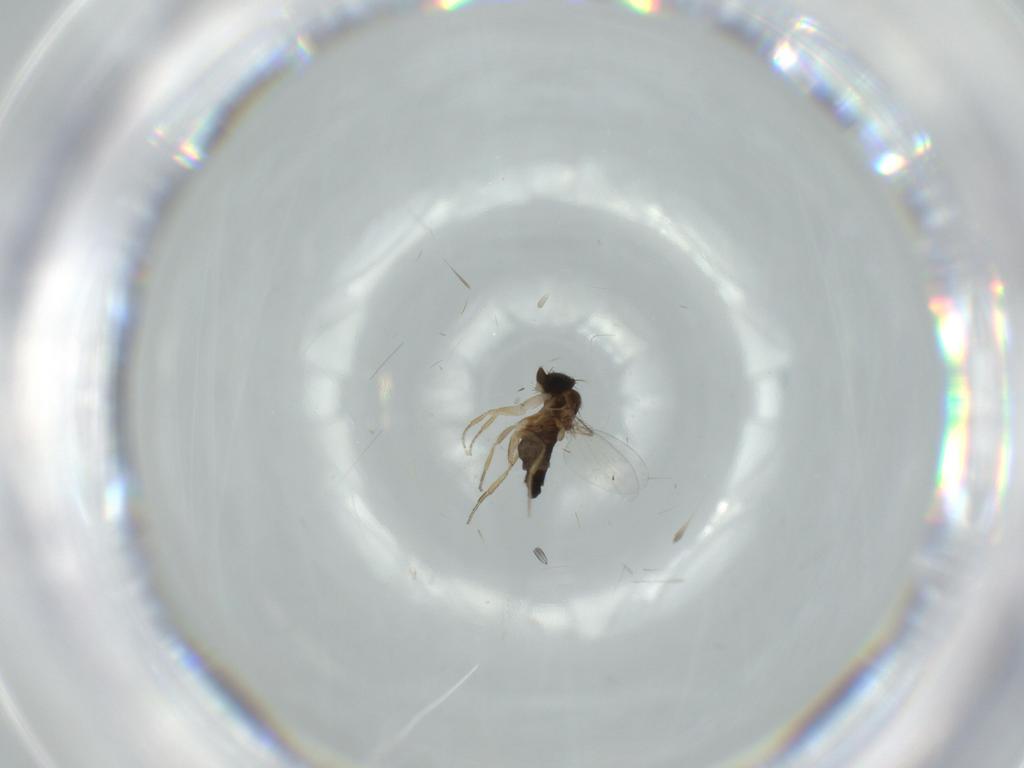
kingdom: Animalia
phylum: Arthropoda
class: Insecta
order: Diptera
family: Phoridae
